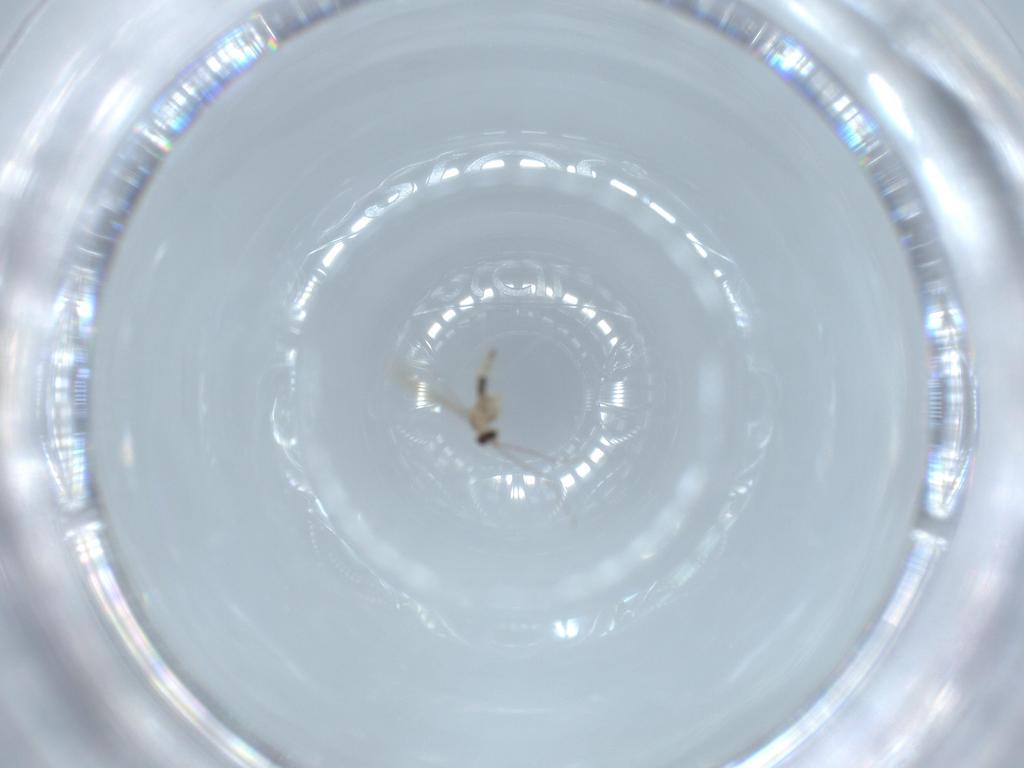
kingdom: Animalia
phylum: Arthropoda
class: Insecta
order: Diptera
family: Cecidomyiidae
